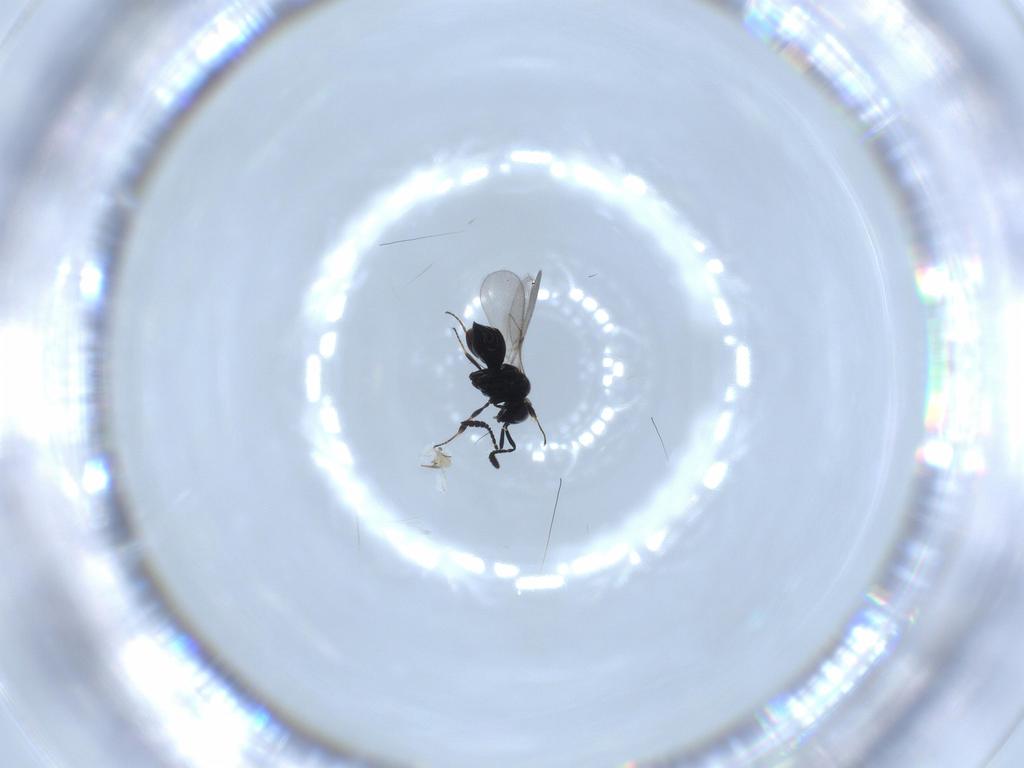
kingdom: Animalia
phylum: Arthropoda
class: Insecta
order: Hymenoptera
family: Scelionidae
